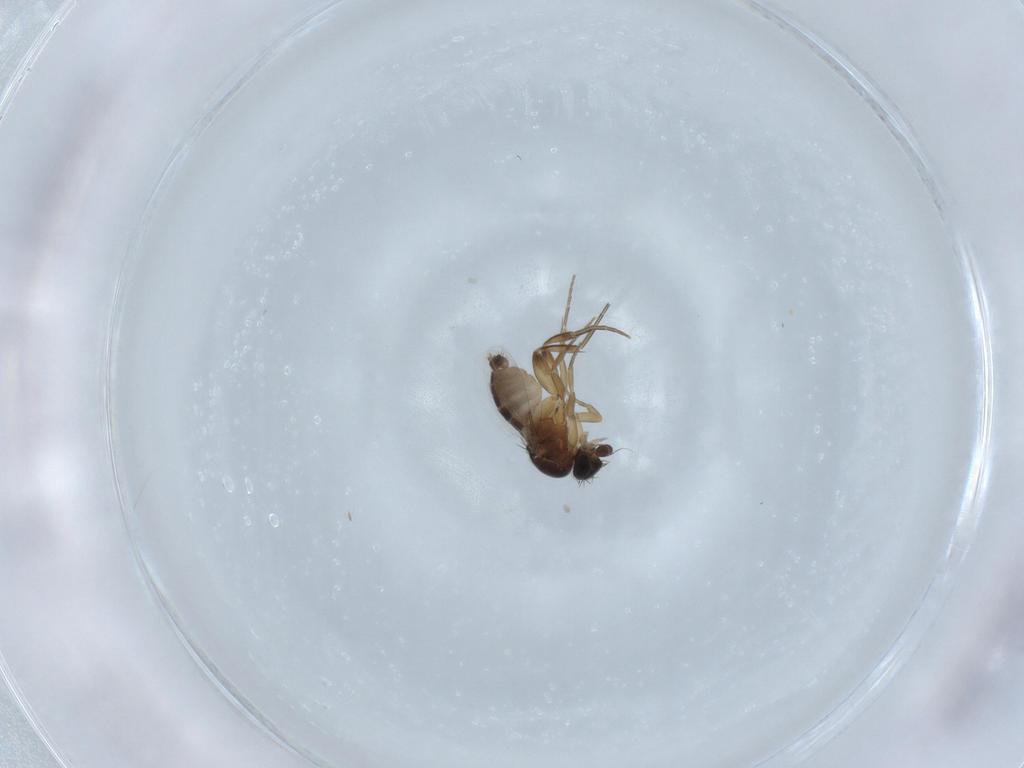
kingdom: Animalia
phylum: Arthropoda
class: Insecta
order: Diptera
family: Phoridae
